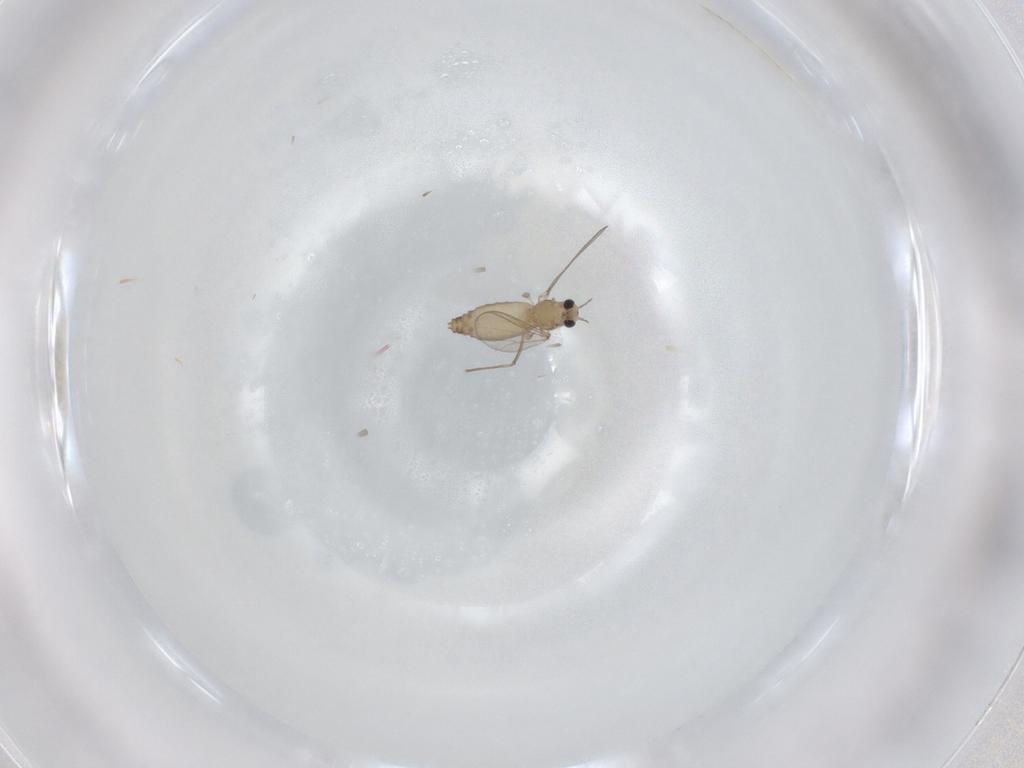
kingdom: Animalia
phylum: Arthropoda
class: Insecta
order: Diptera
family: Chironomidae
